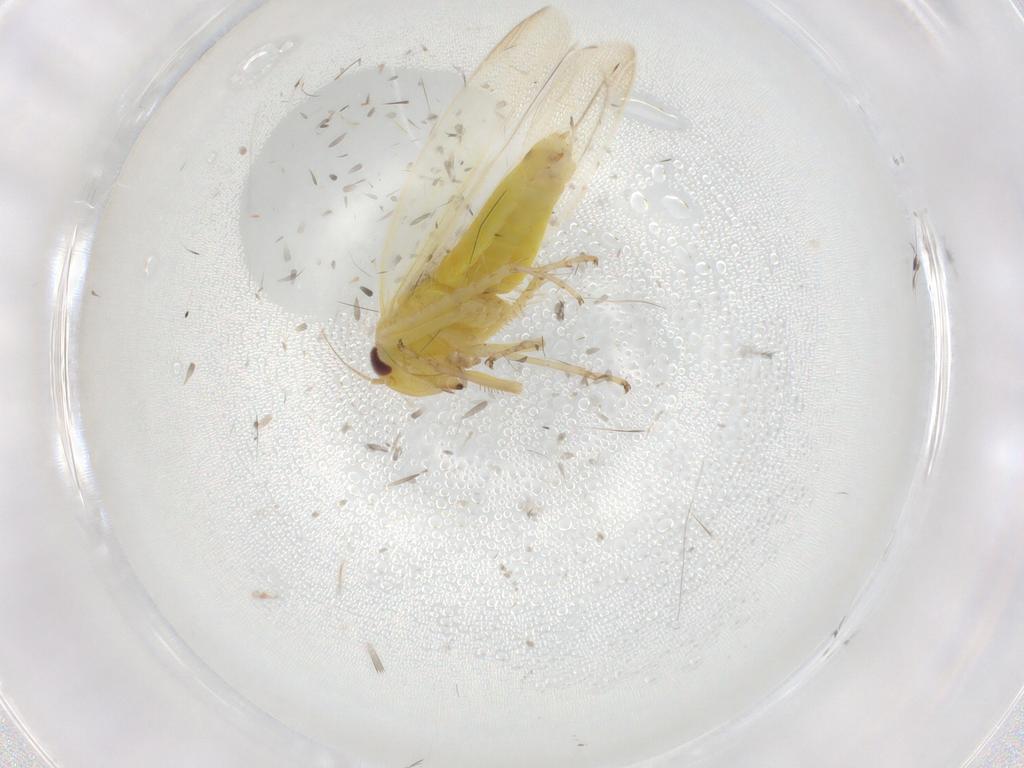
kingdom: Animalia
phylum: Arthropoda
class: Insecta
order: Hemiptera
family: Cicadellidae
